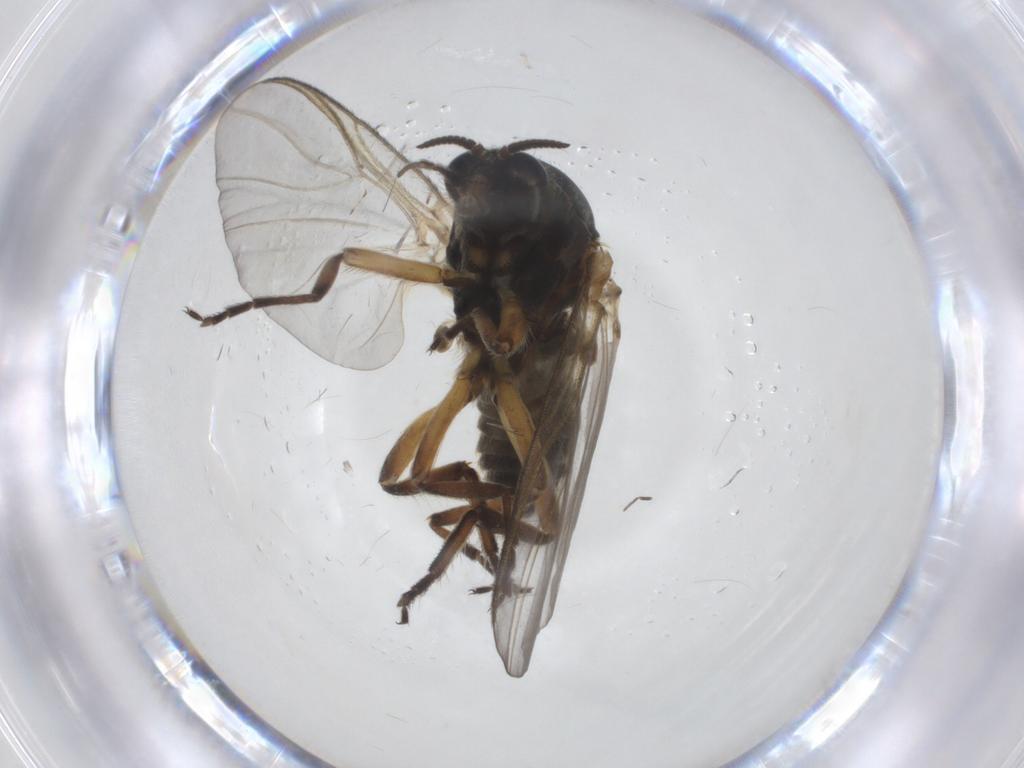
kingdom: Animalia
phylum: Arthropoda
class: Insecta
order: Diptera
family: Simuliidae
